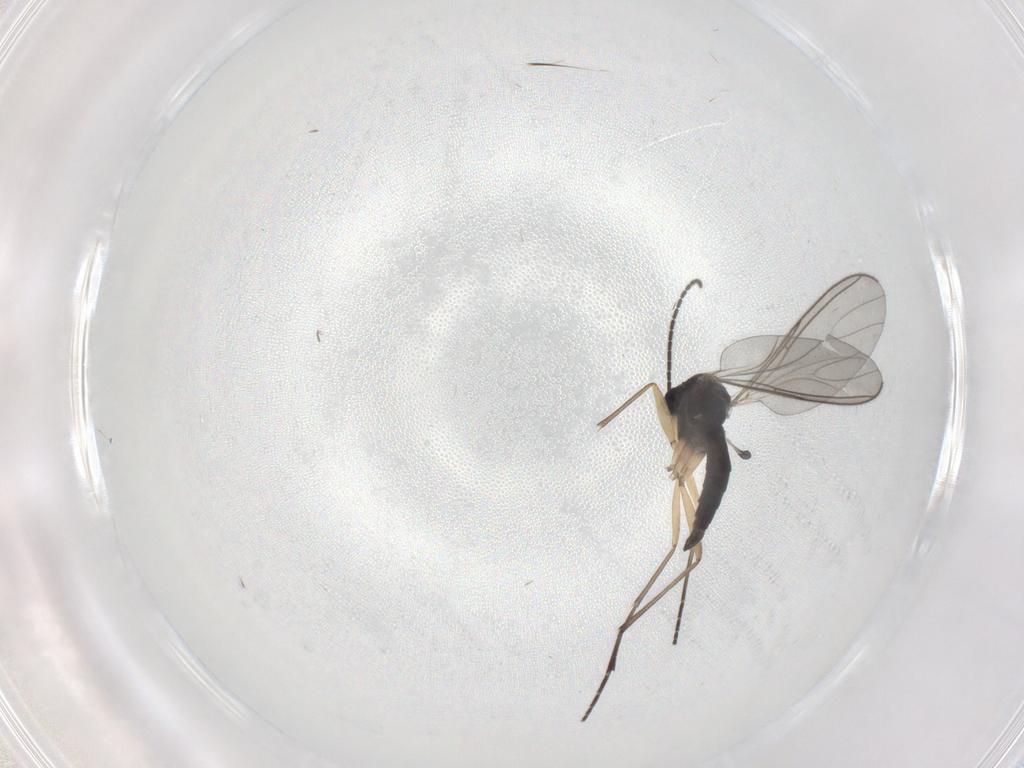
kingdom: Animalia
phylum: Arthropoda
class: Insecta
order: Diptera
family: Sciaridae
